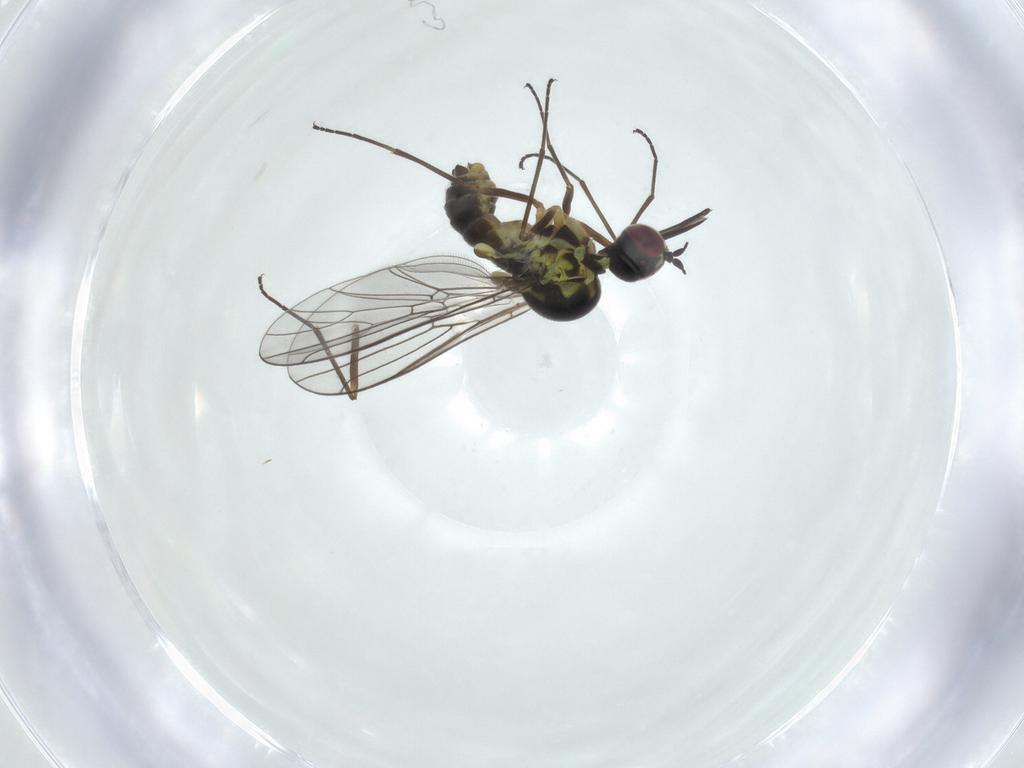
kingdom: Animalia
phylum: Arthropoda
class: Insecta
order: Diptera
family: Bombyliidae
